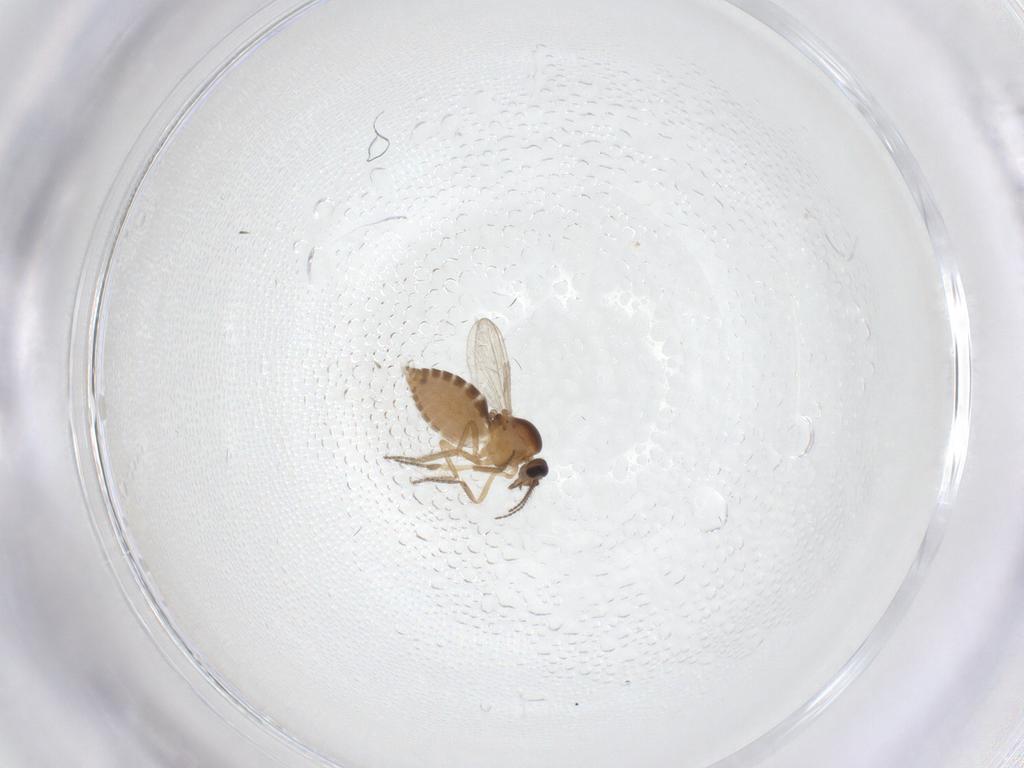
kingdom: Animalia
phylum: Arthropoda
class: Insecta
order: Diptera
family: Ceratopogonidae
